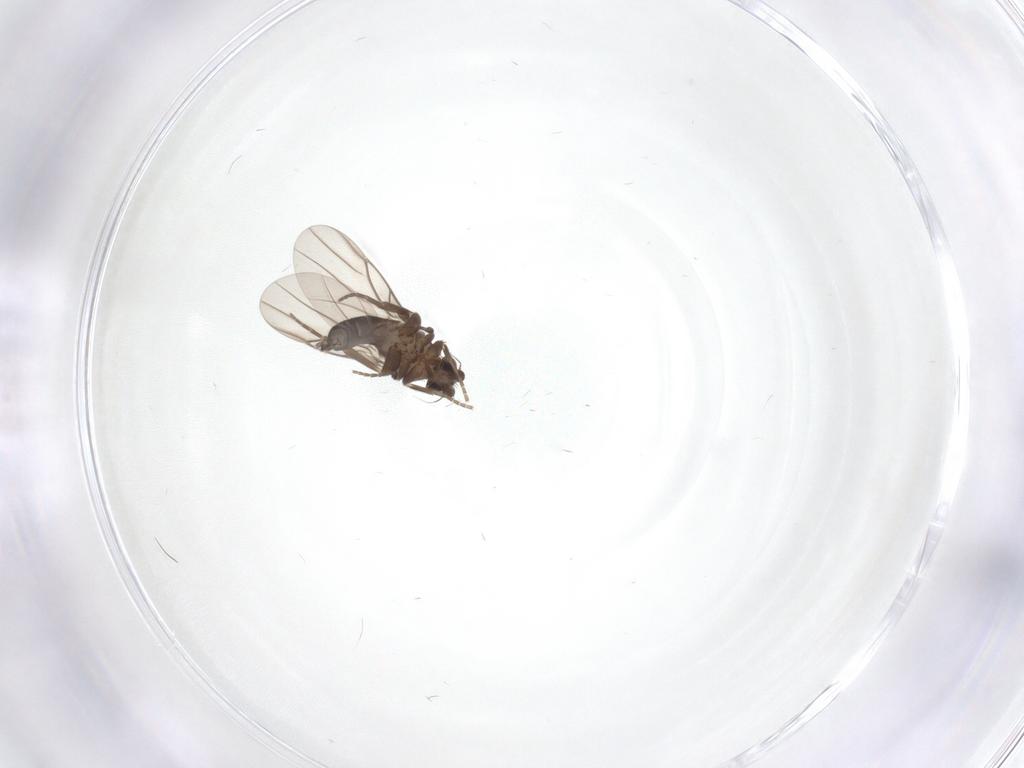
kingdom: Animalia
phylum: Arthropoda
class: Insecta
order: Diptera
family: Phoridae
